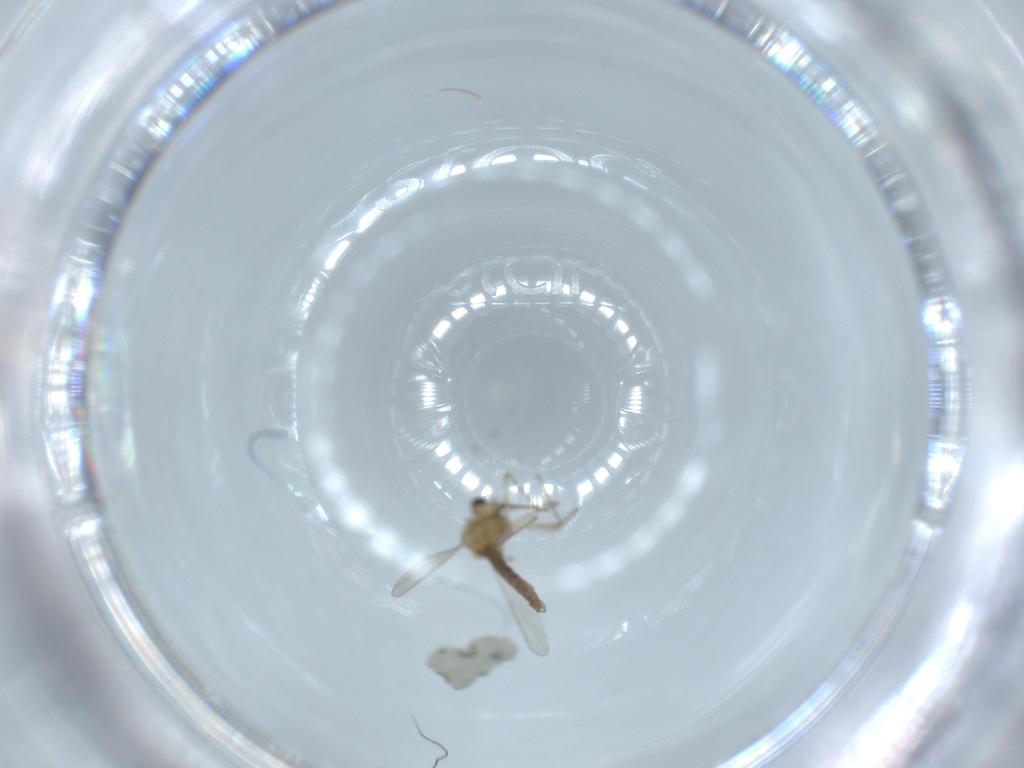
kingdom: Animalia
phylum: Arthropoda
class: Insecta
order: Diptera
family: Chironomidae
